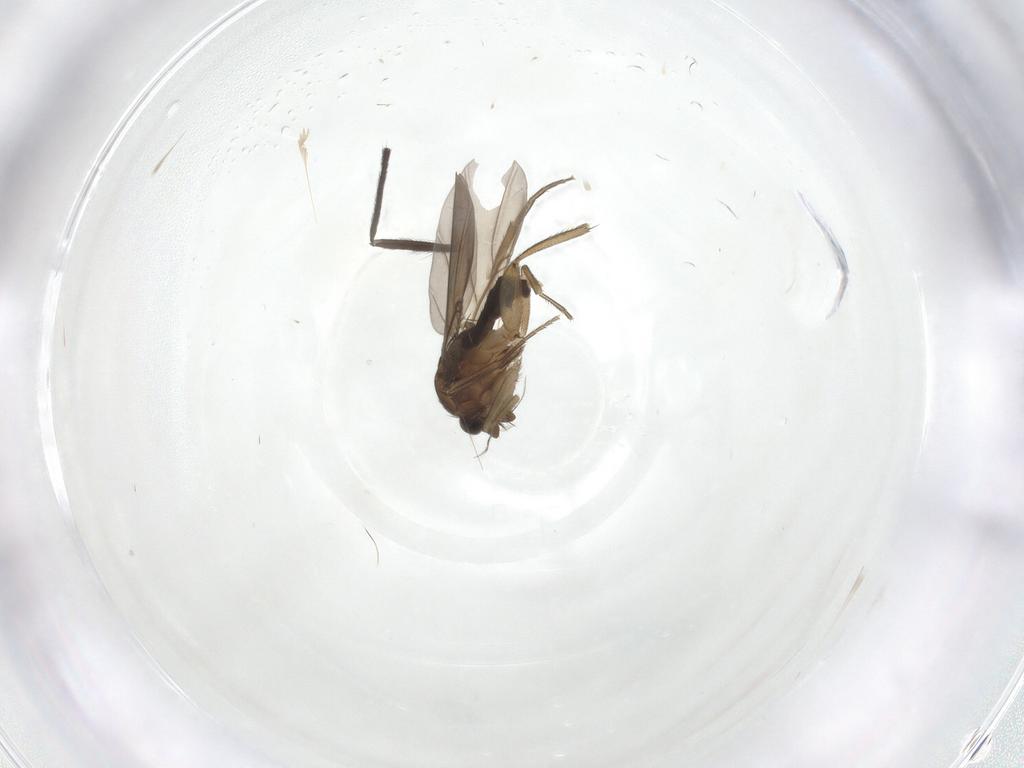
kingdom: Animalia
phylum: Arthropoda
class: Insecta
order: Diptera
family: Phoridae
